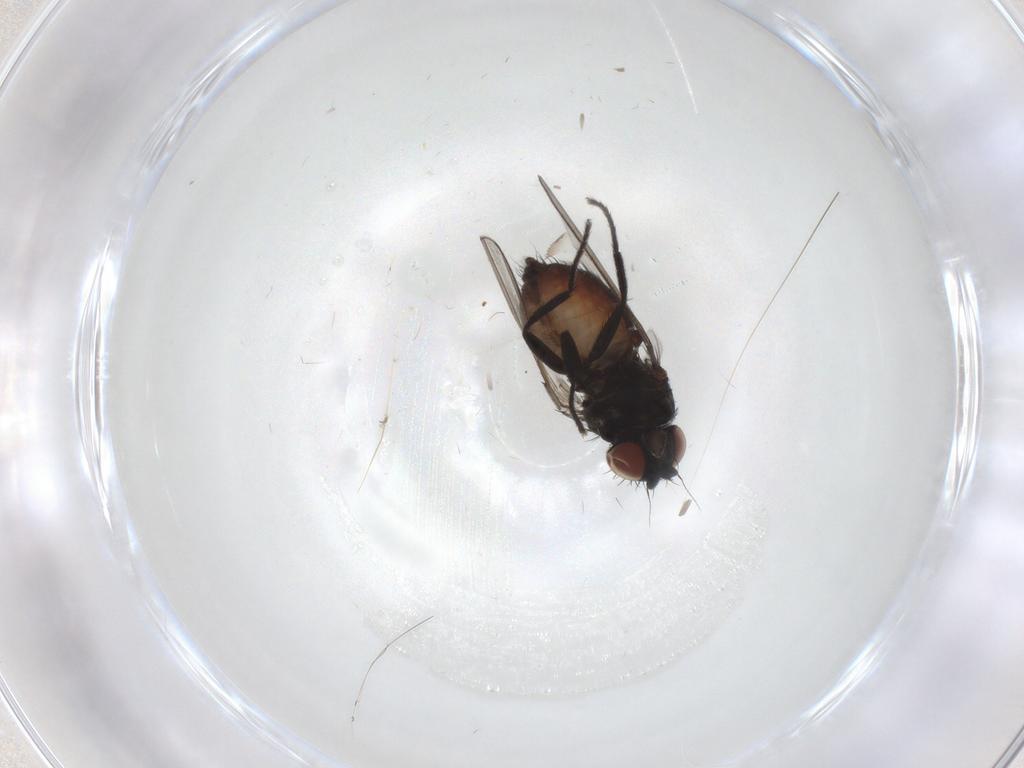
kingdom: Animalia
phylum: Arthropoda
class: Insecta
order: Diptera
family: Milichiidae
